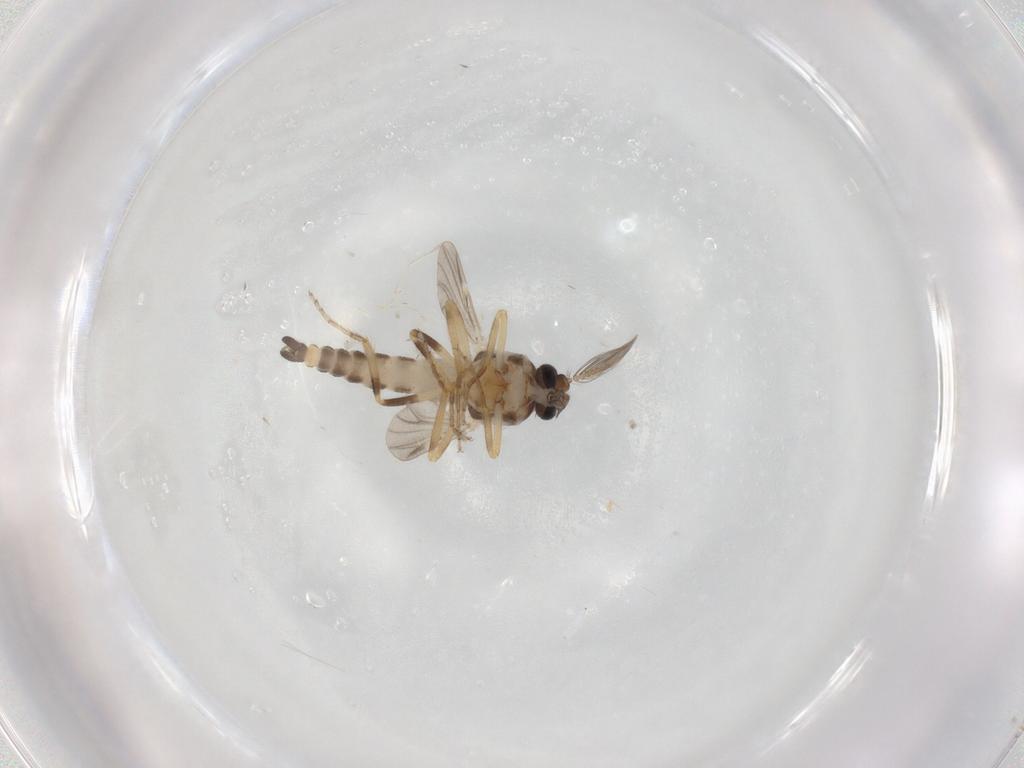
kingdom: Animalia
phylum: Arthropoda
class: Insecta
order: Diptera
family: Ceratopogonidae
